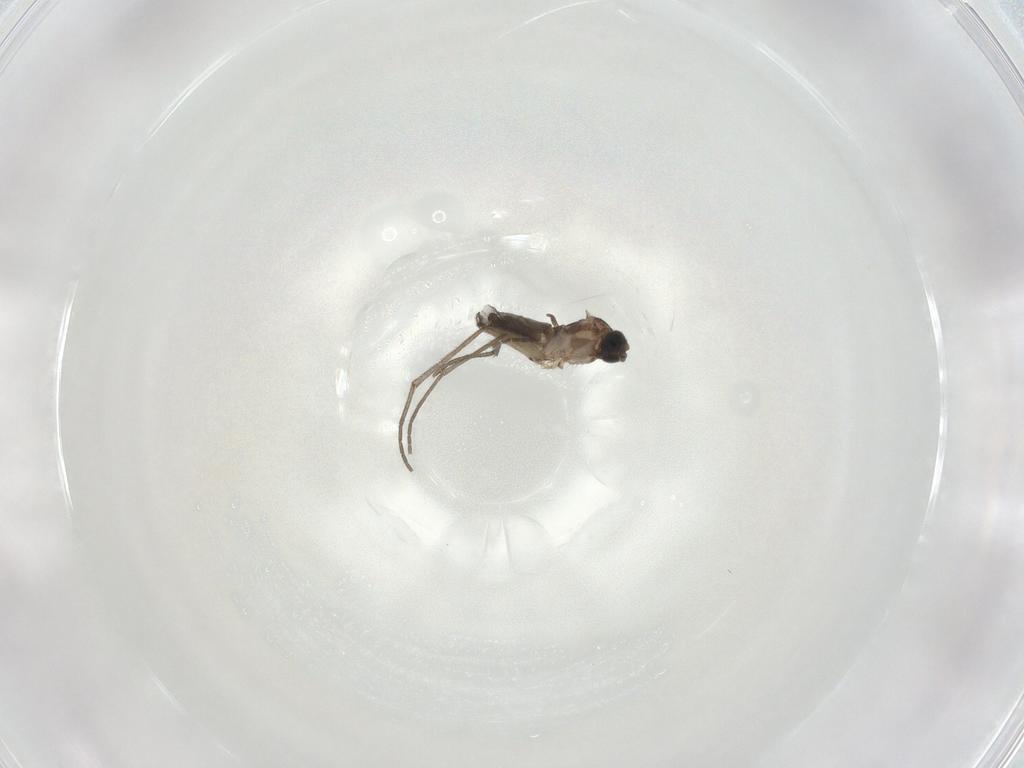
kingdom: Animalia
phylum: Arthropoda
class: Insecta
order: Diptera
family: Sciaridae
